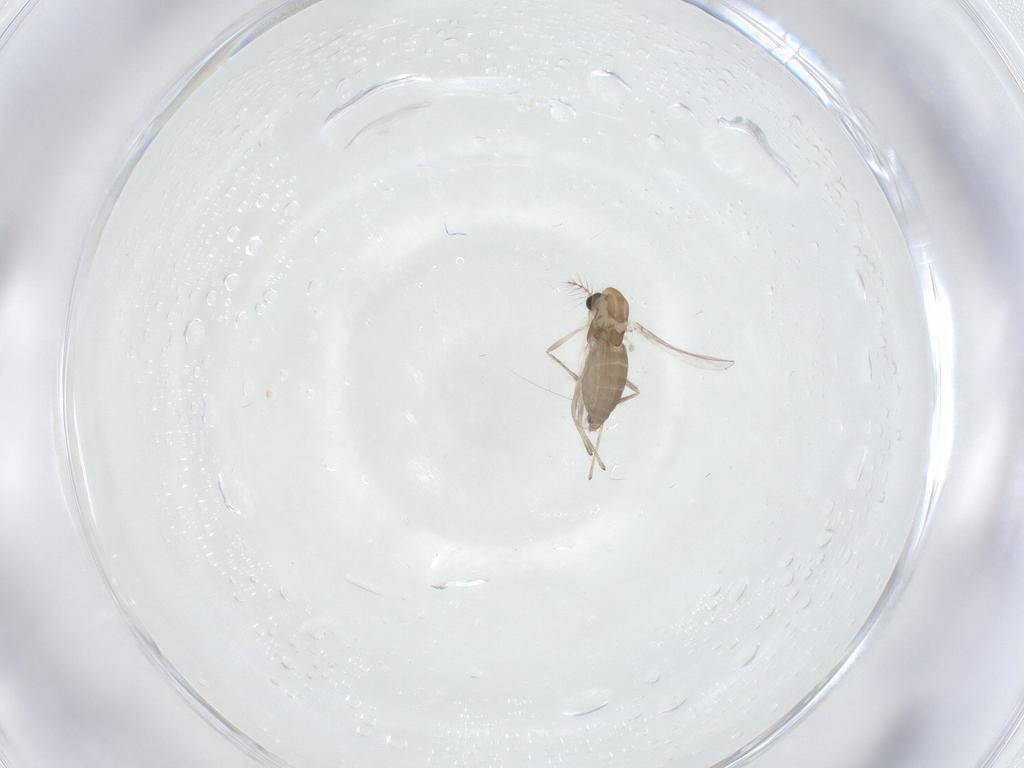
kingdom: Animalia
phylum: Arthropoda
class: Insecta
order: Diptera
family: Chironomidae
